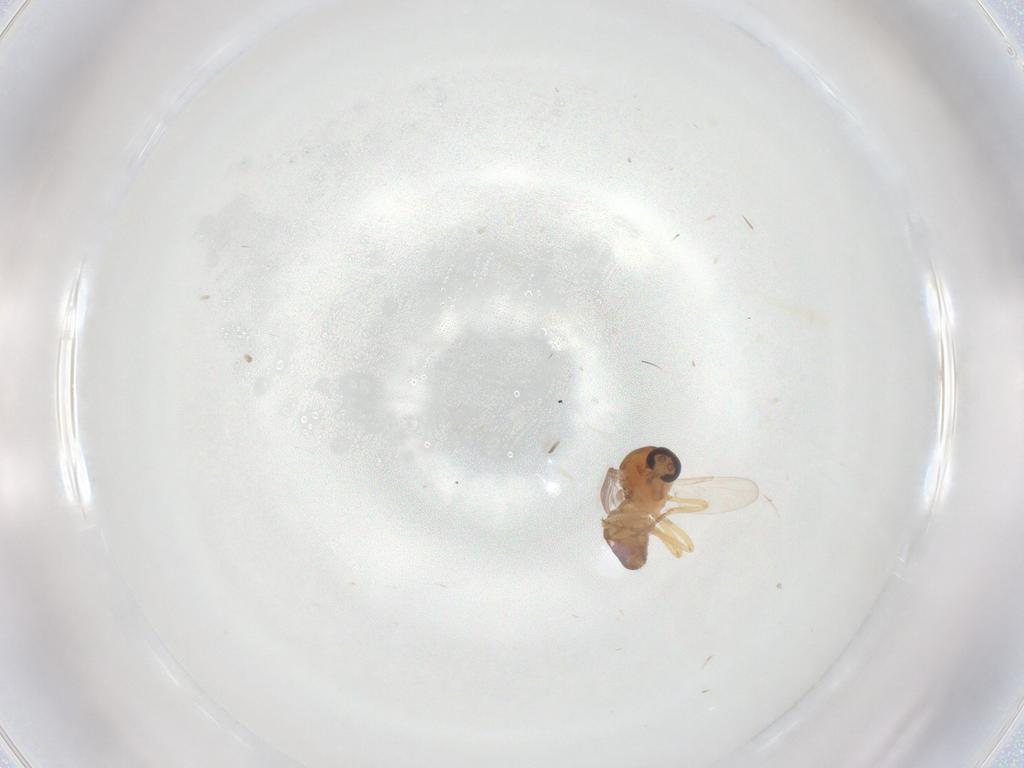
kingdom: Animalia
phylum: Arthropoda
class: Insecta
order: Diptera
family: Ceratopogonidae
